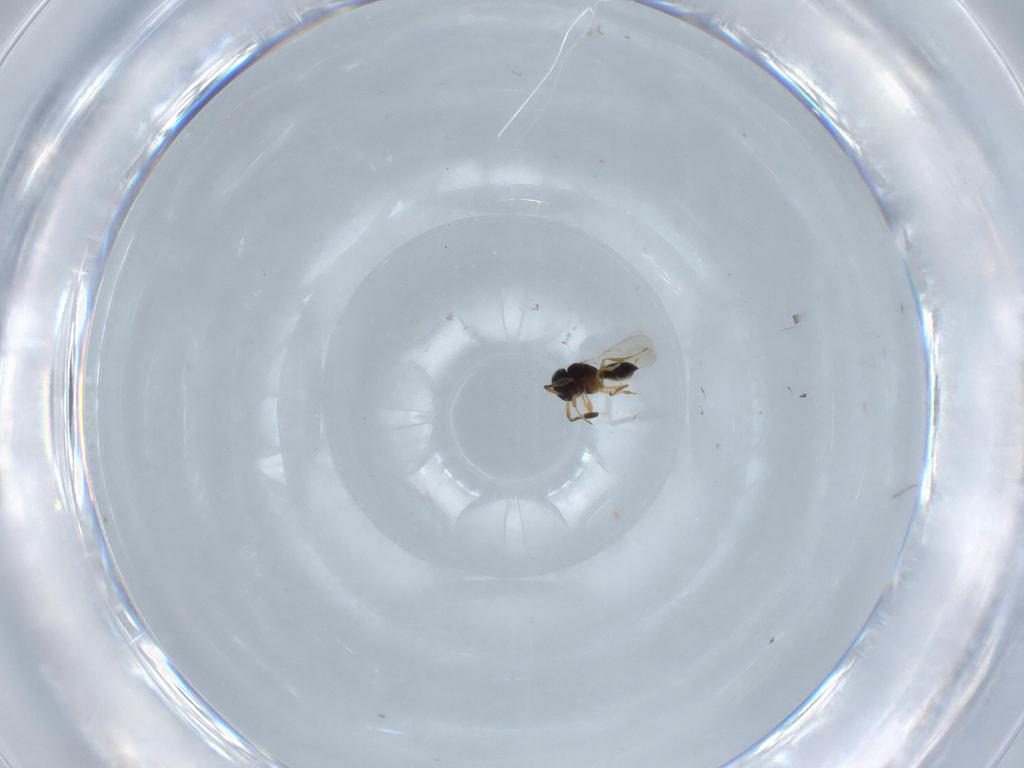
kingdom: Animalia
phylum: Arthropoda
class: Insecta
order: Hymenoptera
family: Scelionidae
